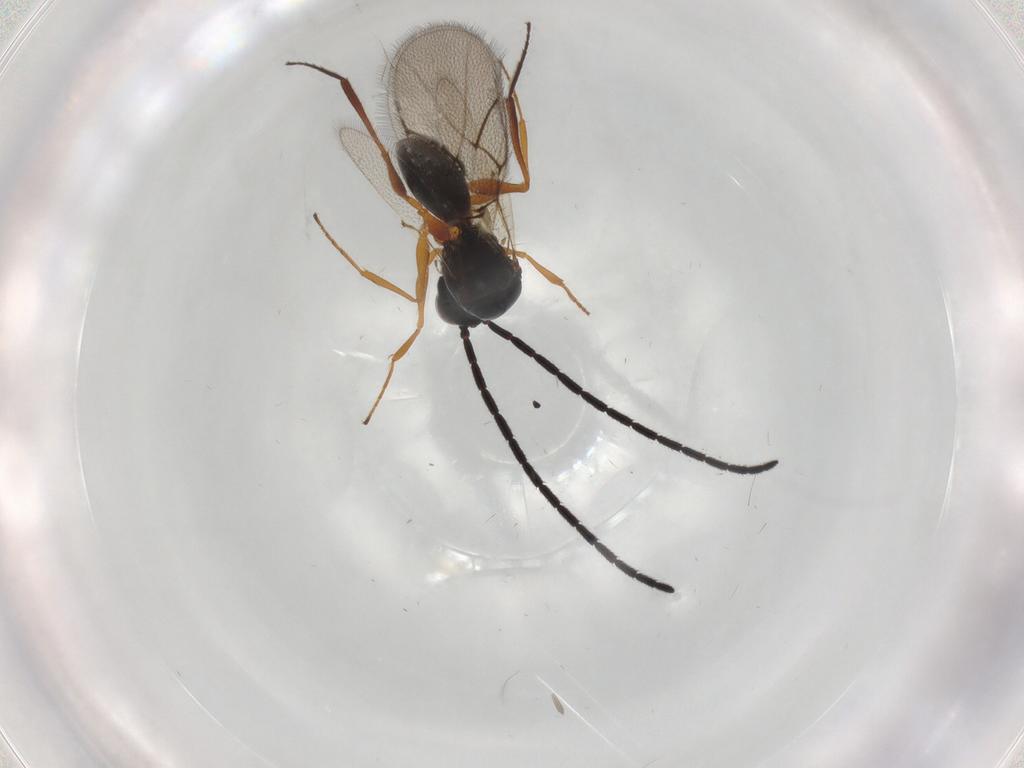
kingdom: Animalia
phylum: Arthropoda
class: Insecta
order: Hymenoptera
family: Figitidae
